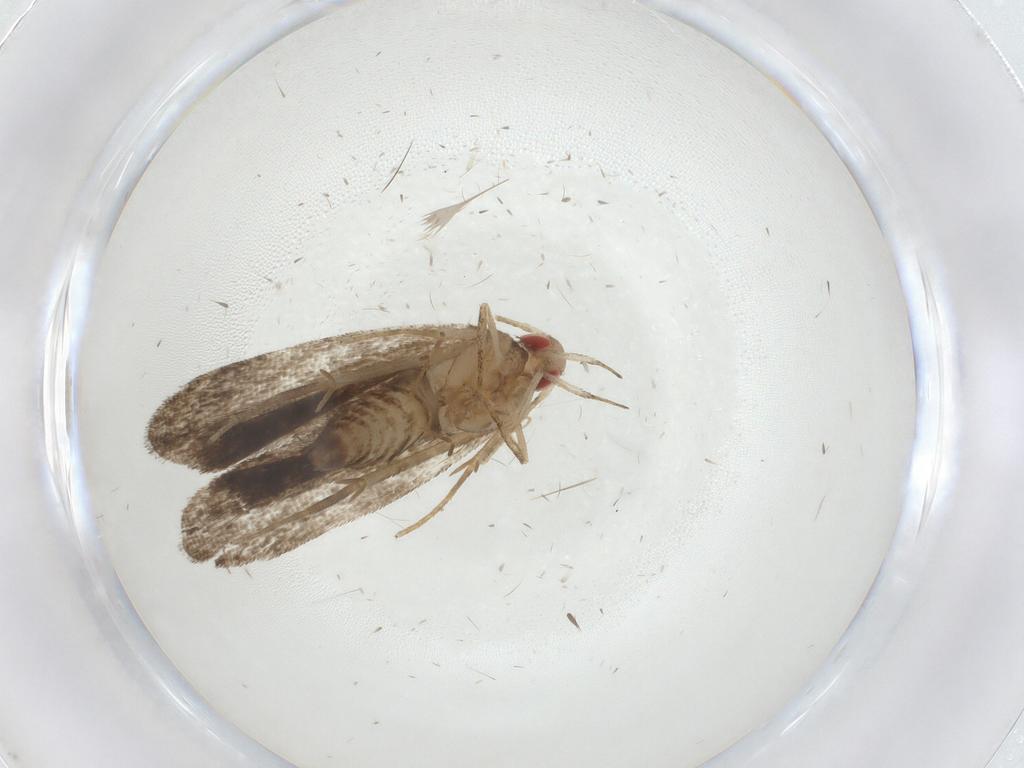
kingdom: Animalia
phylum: Arthropoda
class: Insecta
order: Lepidoptera
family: Gelechiidae
